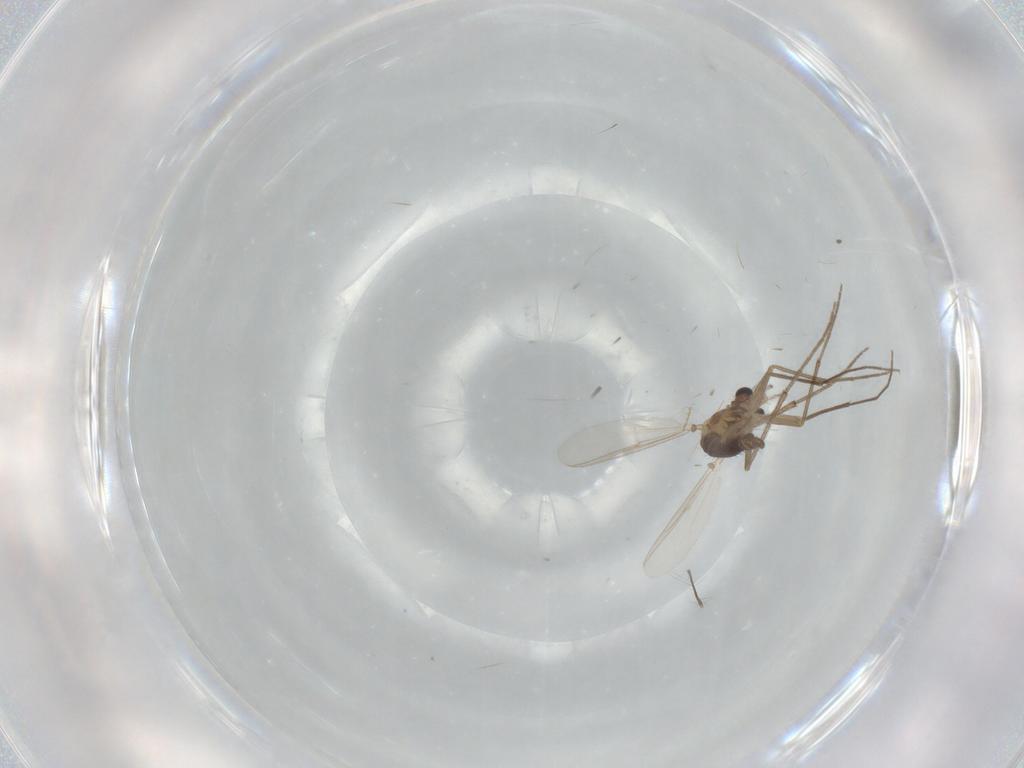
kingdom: Animalia
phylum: Arthropoda
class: Insecta
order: Diptera
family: Chironomidae
